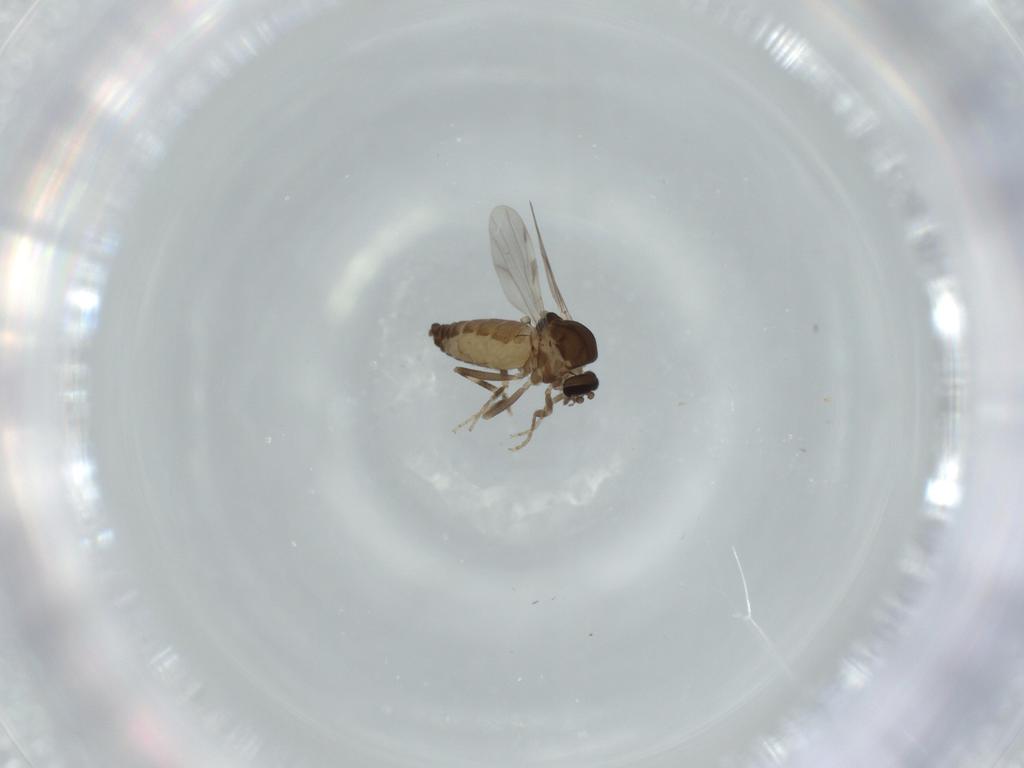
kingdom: Animalia
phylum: Arthropoda
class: Insecta
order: Diptera
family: Ceratopogonidae
